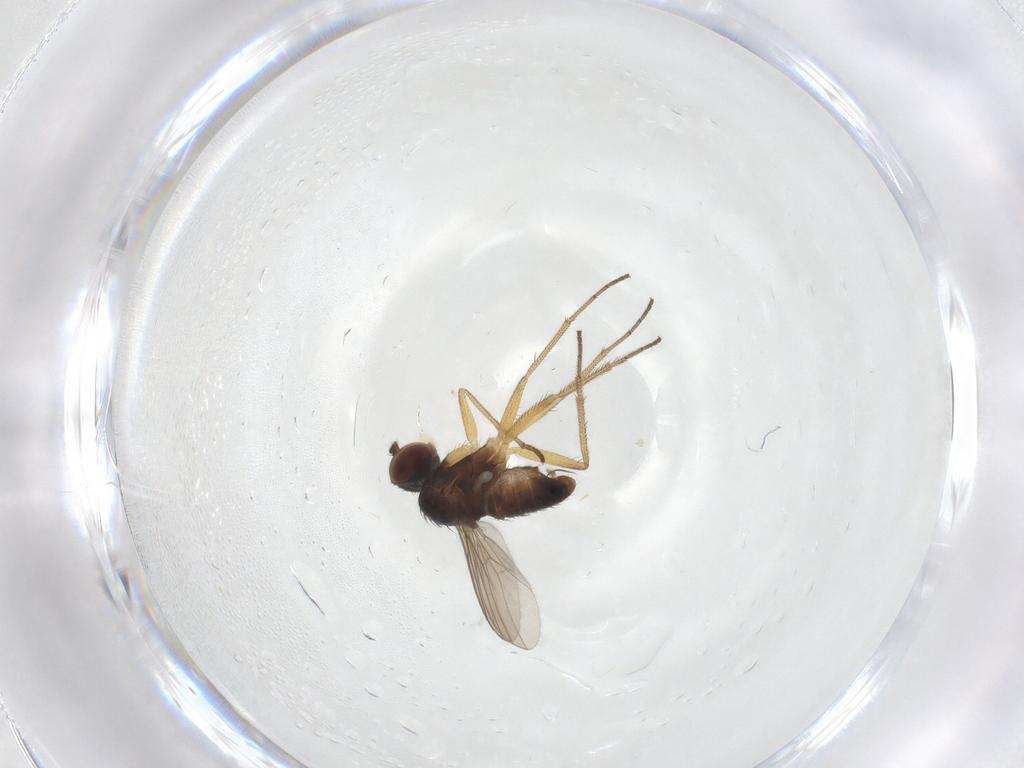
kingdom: Animalia
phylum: Arthropoda
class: Insecta
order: Diptera
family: Dolichopodidae
